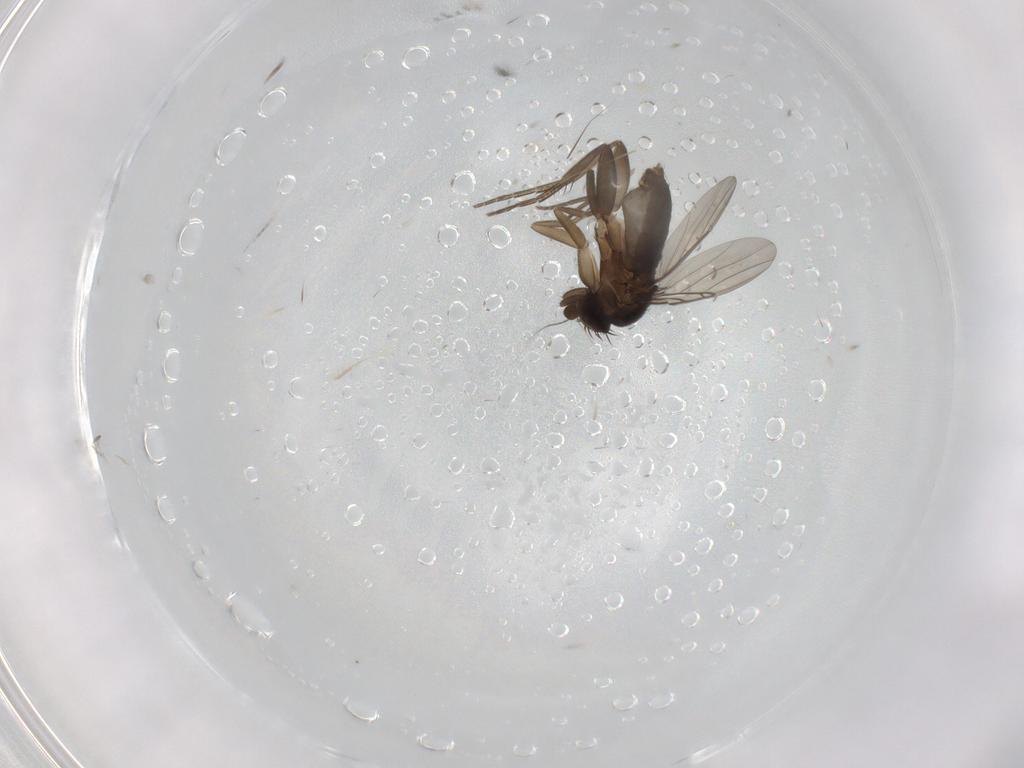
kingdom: Animalia
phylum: Arthropoda
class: Insecta
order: Diptera
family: Phoridae
